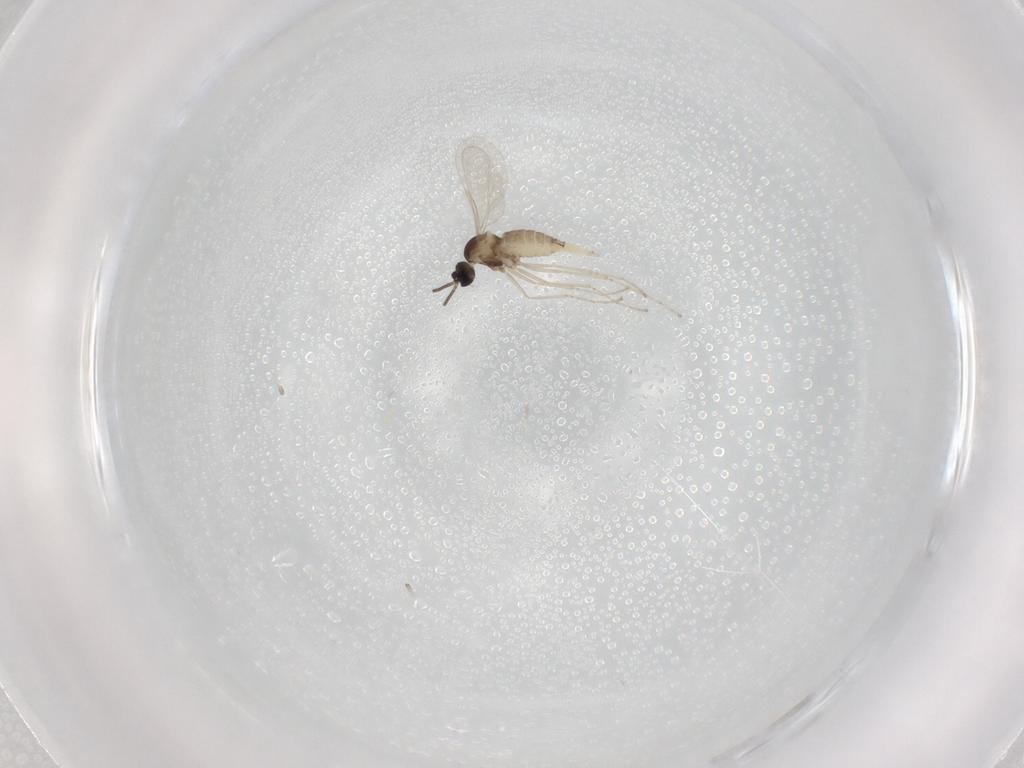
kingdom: Animalia
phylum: Arthropoda
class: Insecta
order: Diptera
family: Cecidomyiidae
